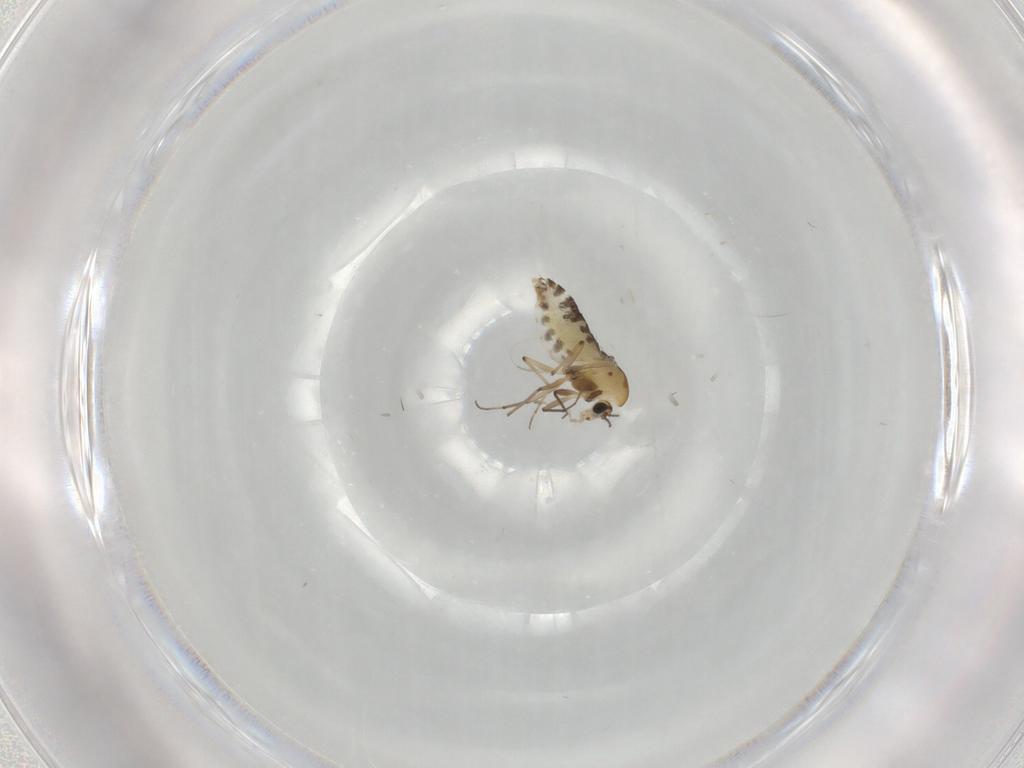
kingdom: Animalia
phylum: Arthropoda
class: Insecta
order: Diptera
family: Chironomidae
